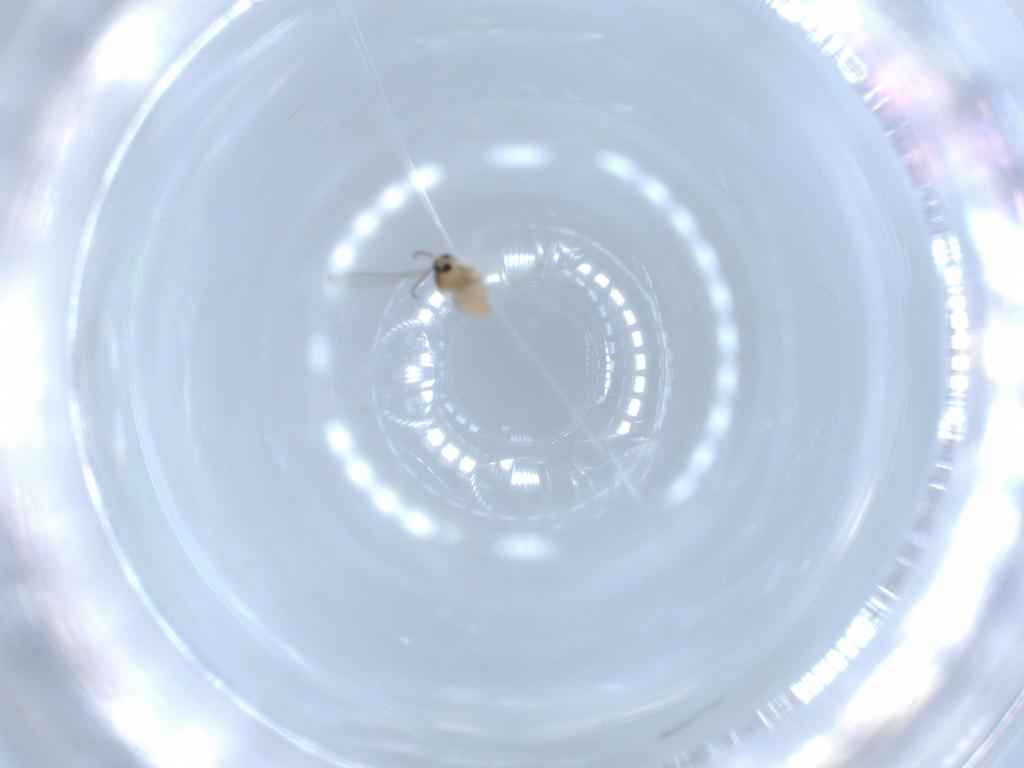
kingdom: Animalia
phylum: Arthropoda
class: Insecta
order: Diptera
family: Cecidomyiidae
